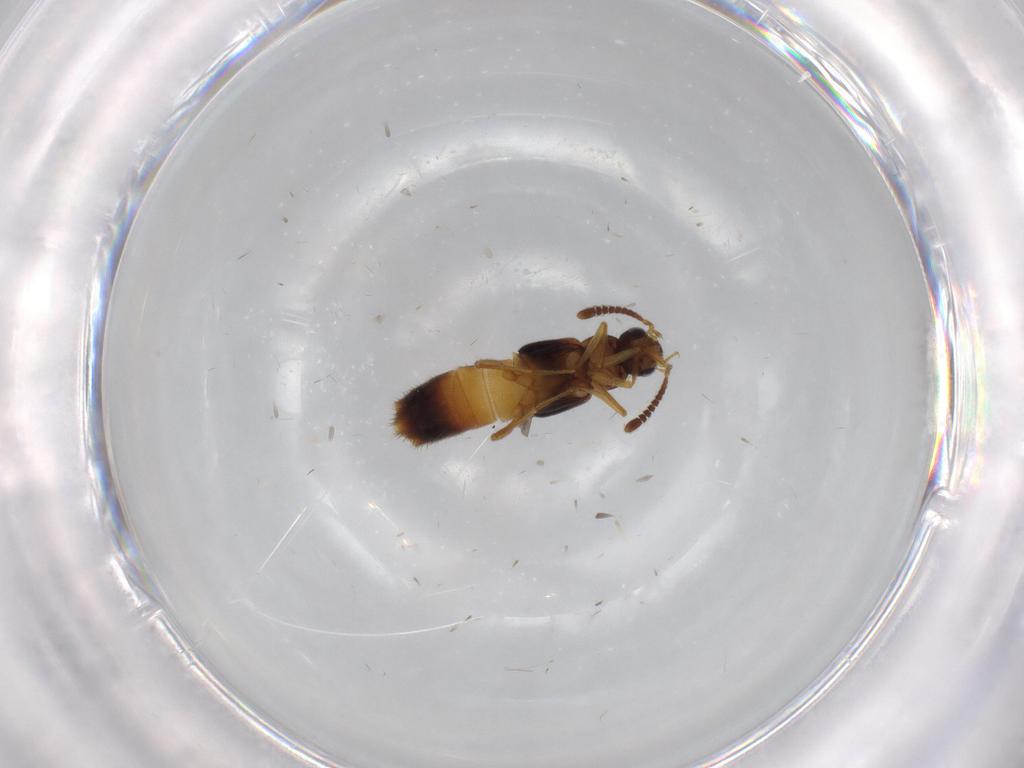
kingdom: Animalia
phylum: Arthropoda
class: Insecta
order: Coleoptera
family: Staphylinidae
